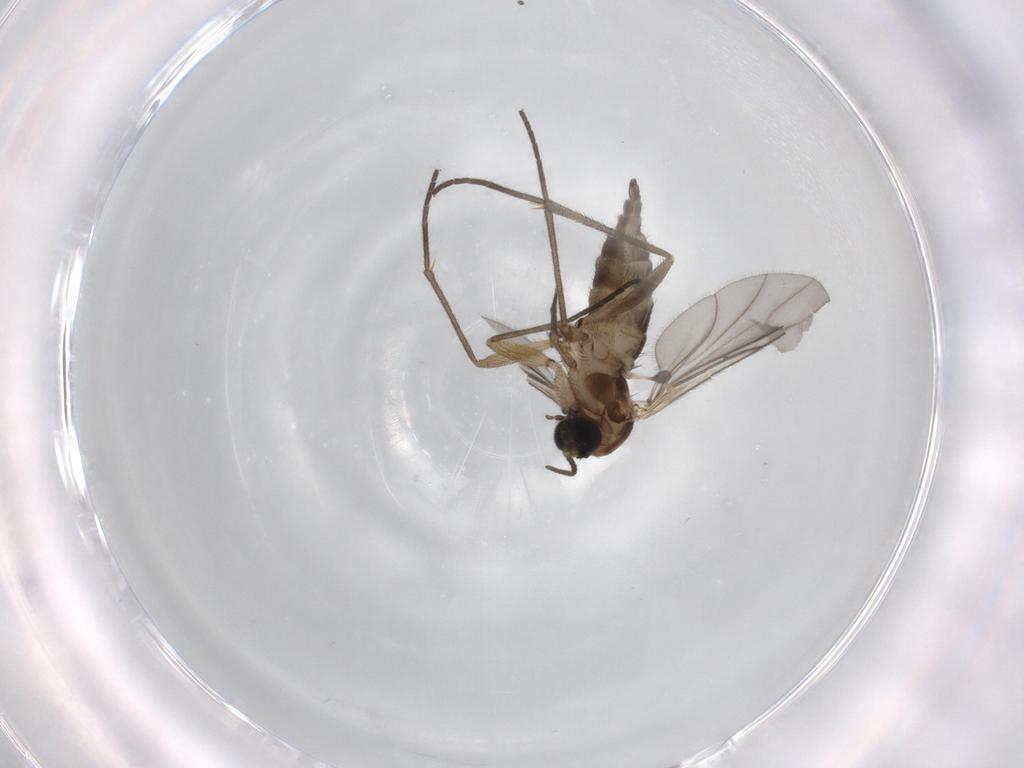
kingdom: Animalia
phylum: Arthropoda
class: Insecta
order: Diptera
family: Sciaridae
